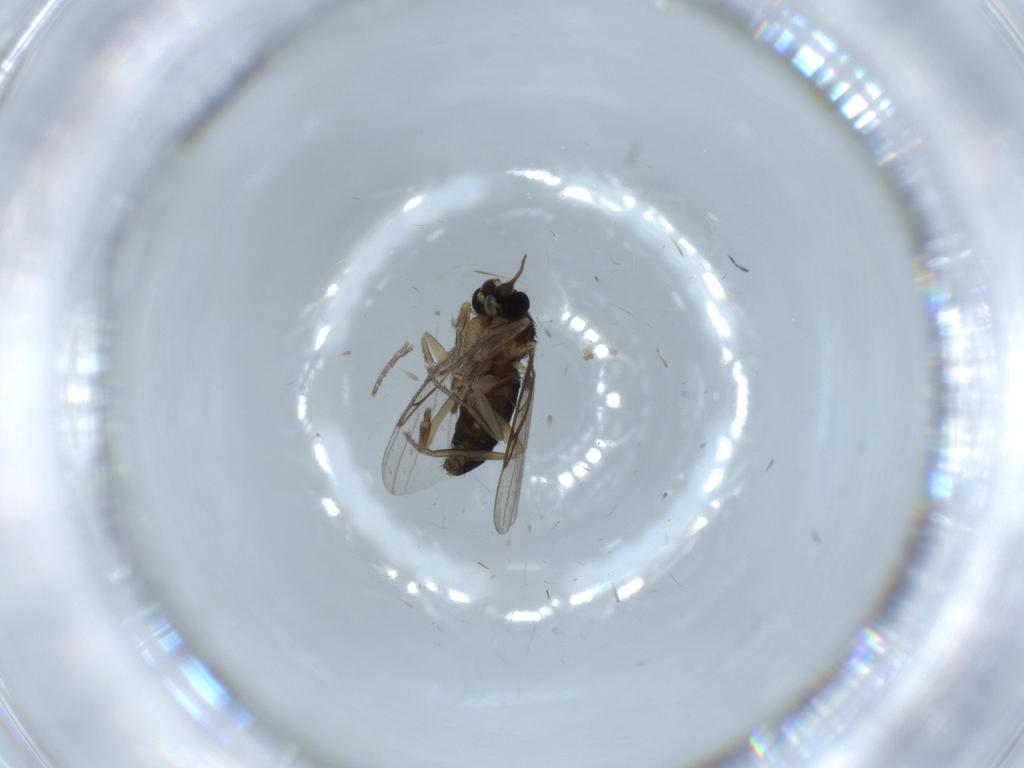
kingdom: Animalia
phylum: Arthropoda
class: Insecta
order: Diptera
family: Cecidomyiidae
